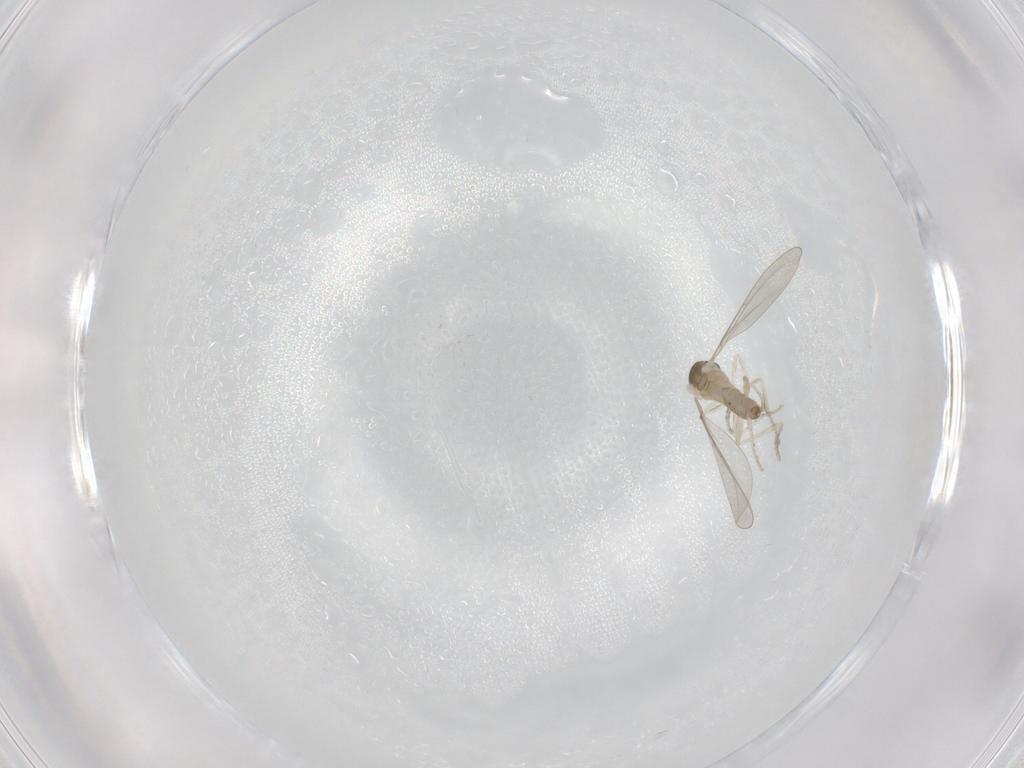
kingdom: Animalia
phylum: Arthropoda
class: Insecta
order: Diptera
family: Cecidomyiidae
